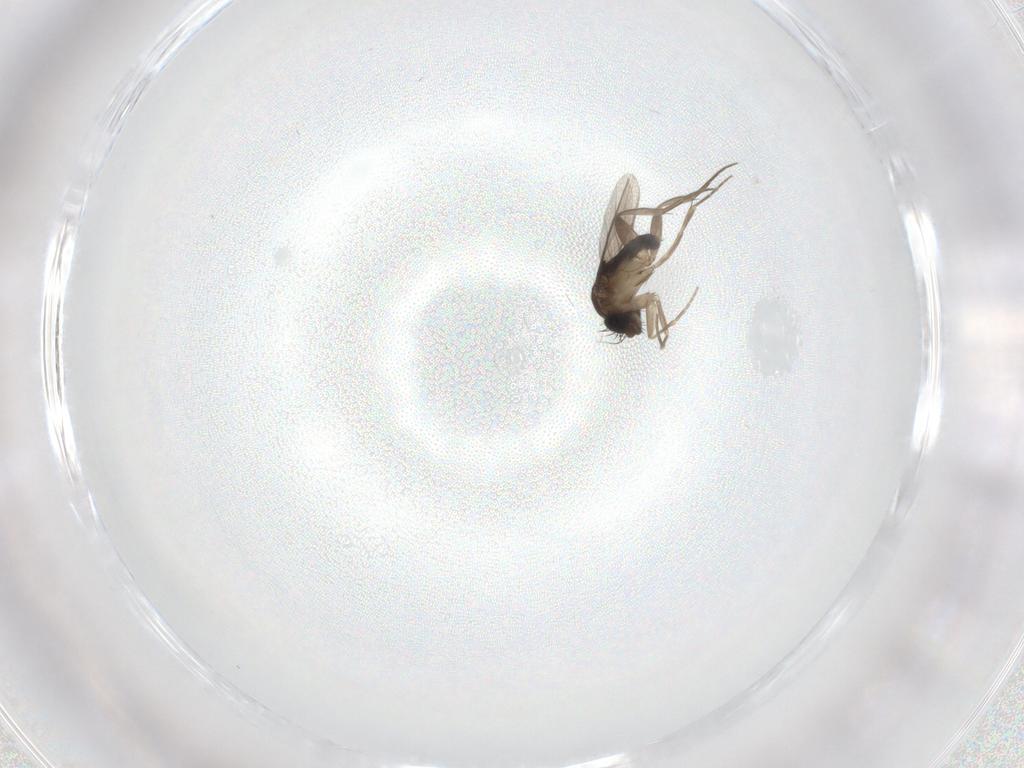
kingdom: Animalia
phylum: Arthropoda
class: Insecta
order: Diptera
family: Phoridae
